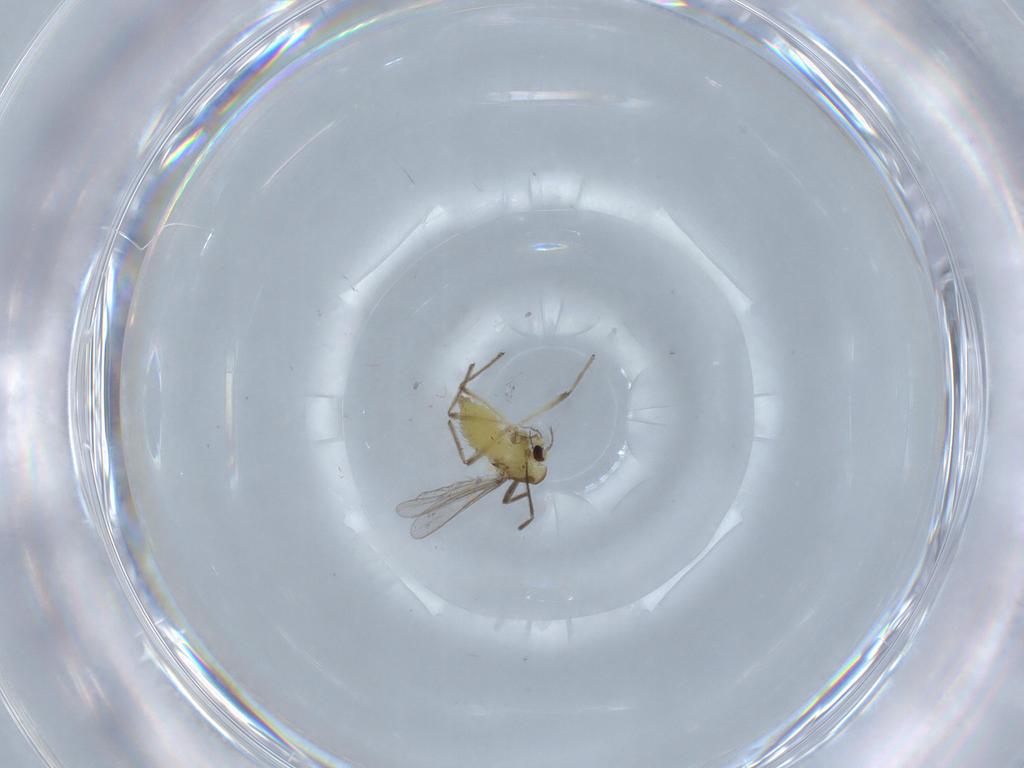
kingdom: Animalia
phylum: Arthropoda
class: Insecta
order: Diptera
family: Chironomidae
